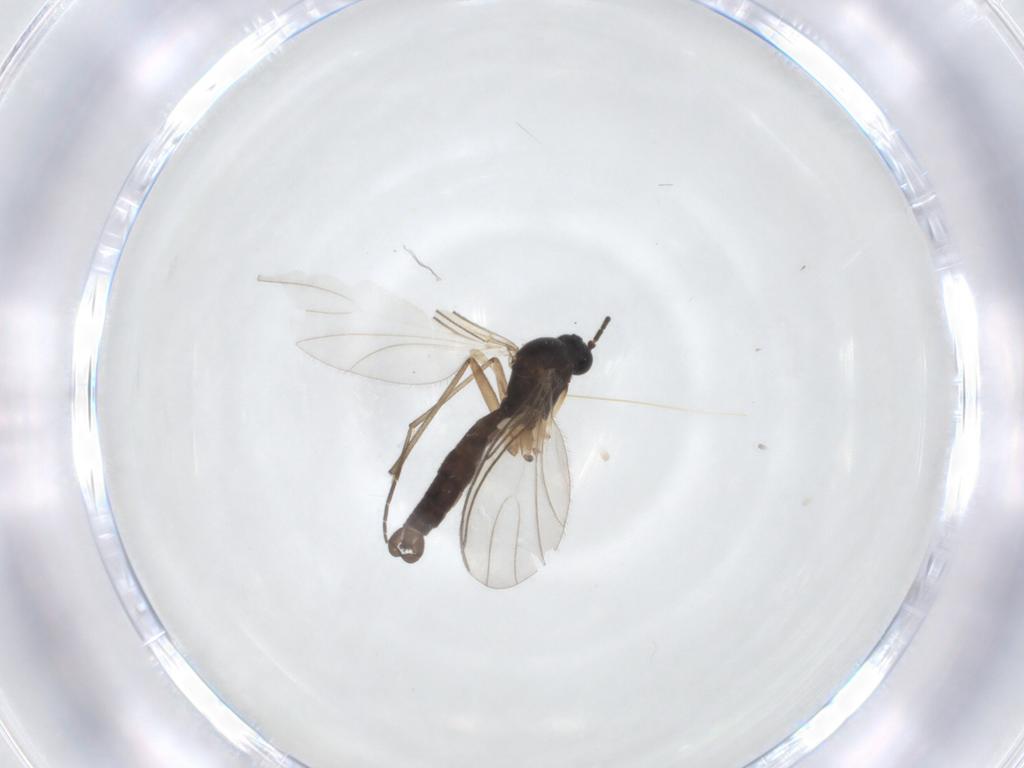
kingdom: Animalia
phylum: Arthropoda
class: Insecta
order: Diptera
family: Sciaridae
